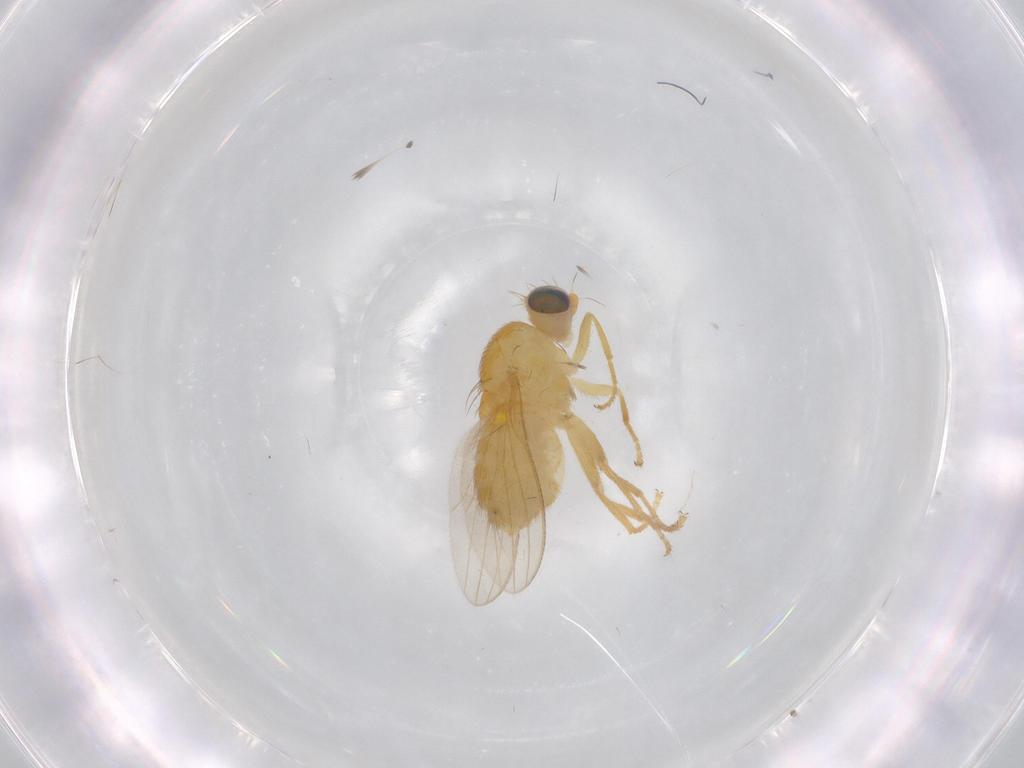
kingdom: Animalia
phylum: Arthropoda
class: Insecta
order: Diptera
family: Chyromyidae
